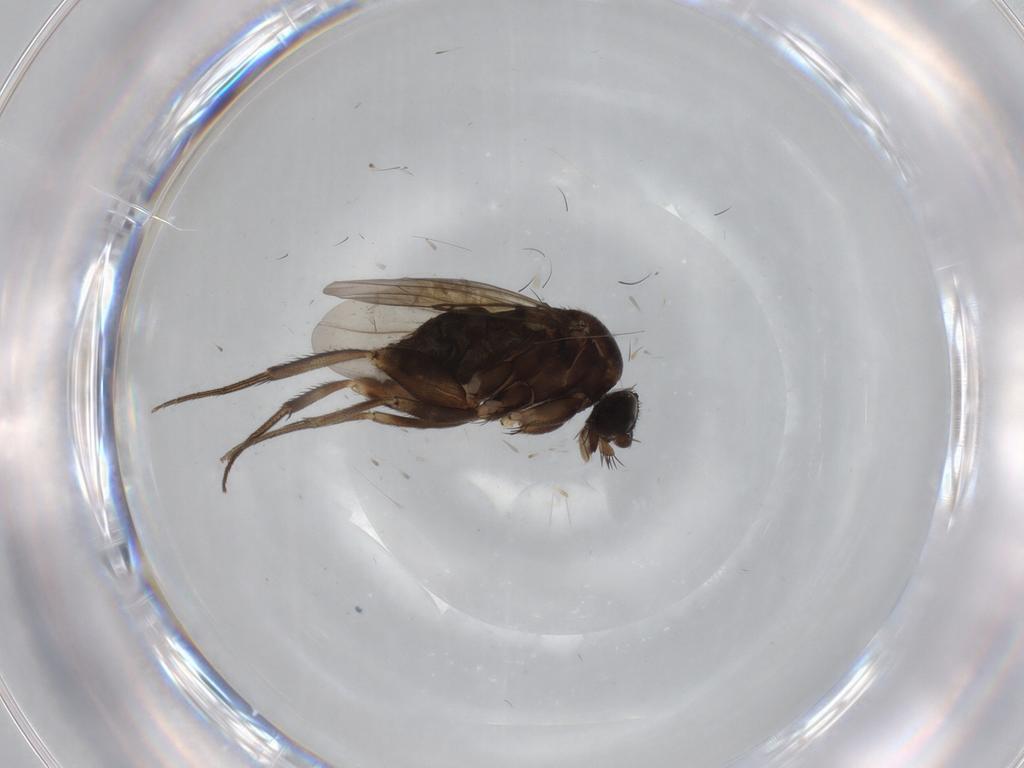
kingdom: Animalia
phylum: Arthropoda
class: Insecta
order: Diptera
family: Phoridae
